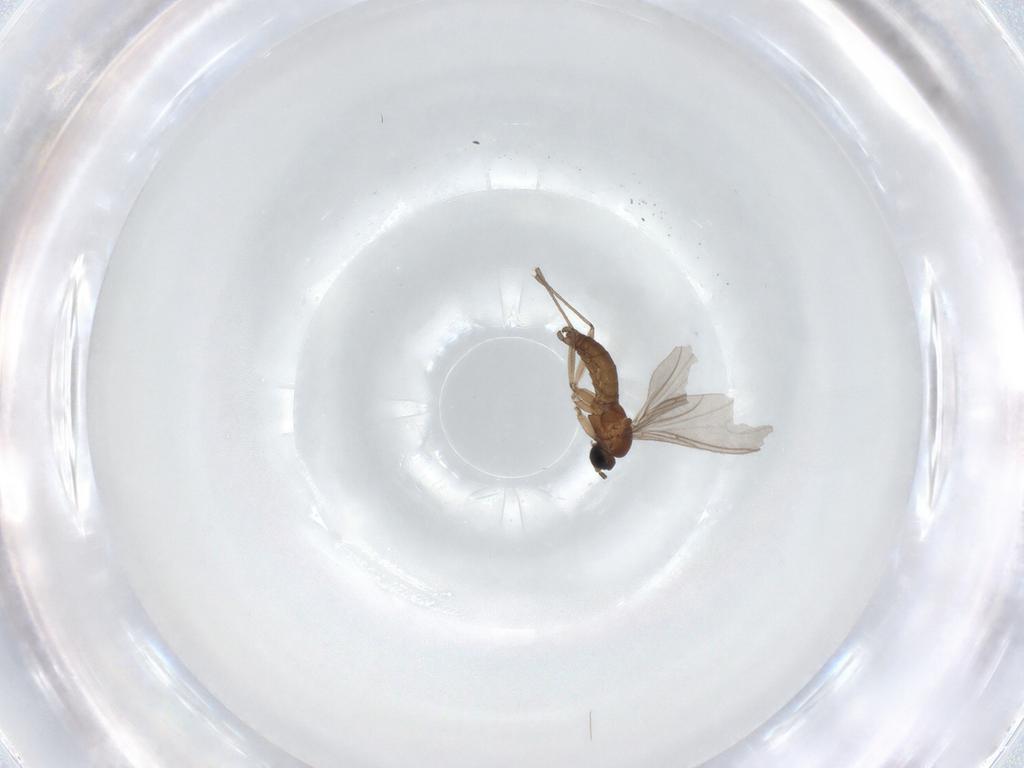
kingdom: Animalia
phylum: Arthropoda
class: Insecta
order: Diptera
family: Sciaridae
